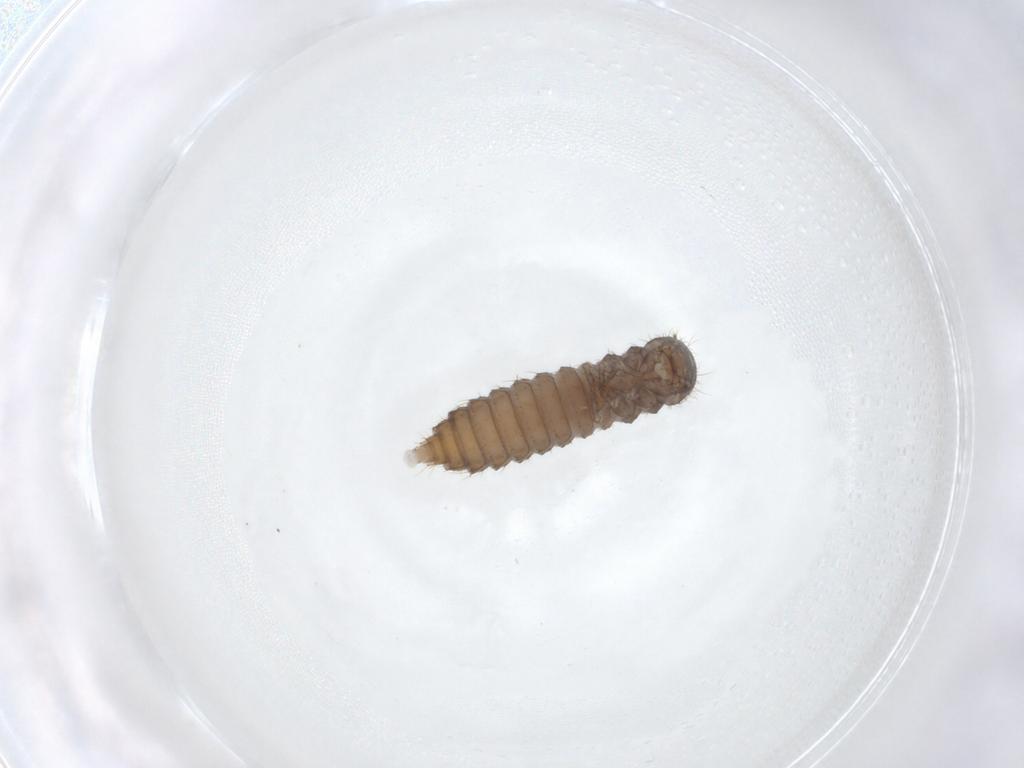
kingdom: Animalia
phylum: Arthropoda
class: Insecta
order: Coleoptera
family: Staphylinidae
